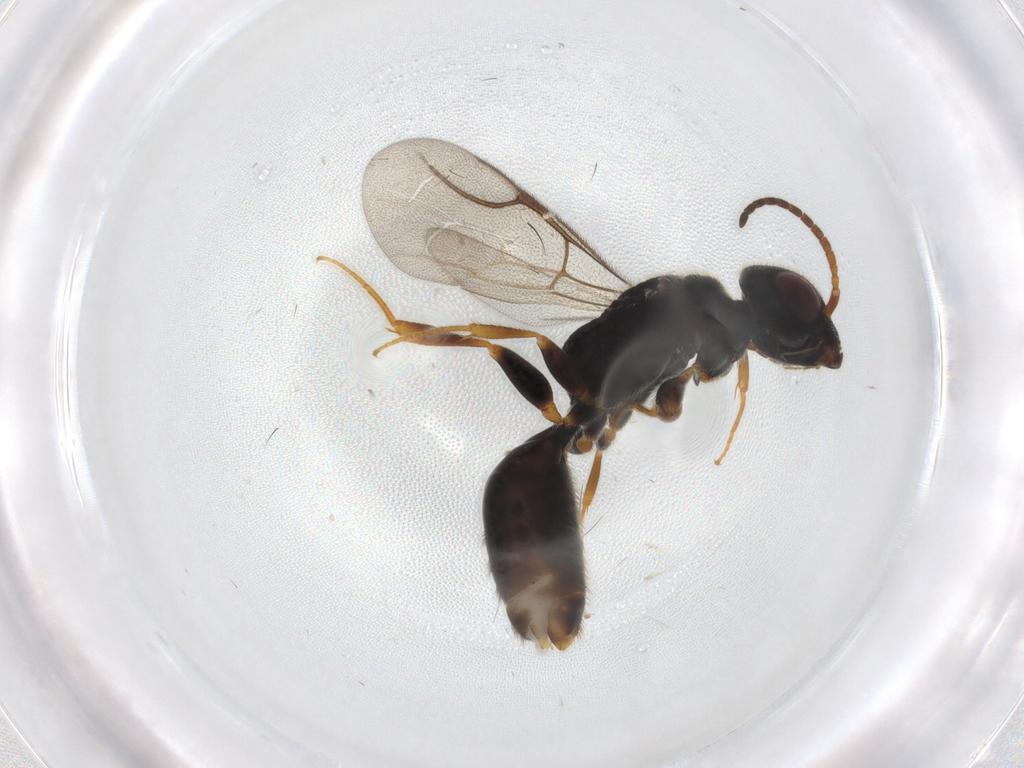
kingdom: Animalia
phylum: Arthropoda
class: Insecta
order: Hymenoptera
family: Bethylidae
